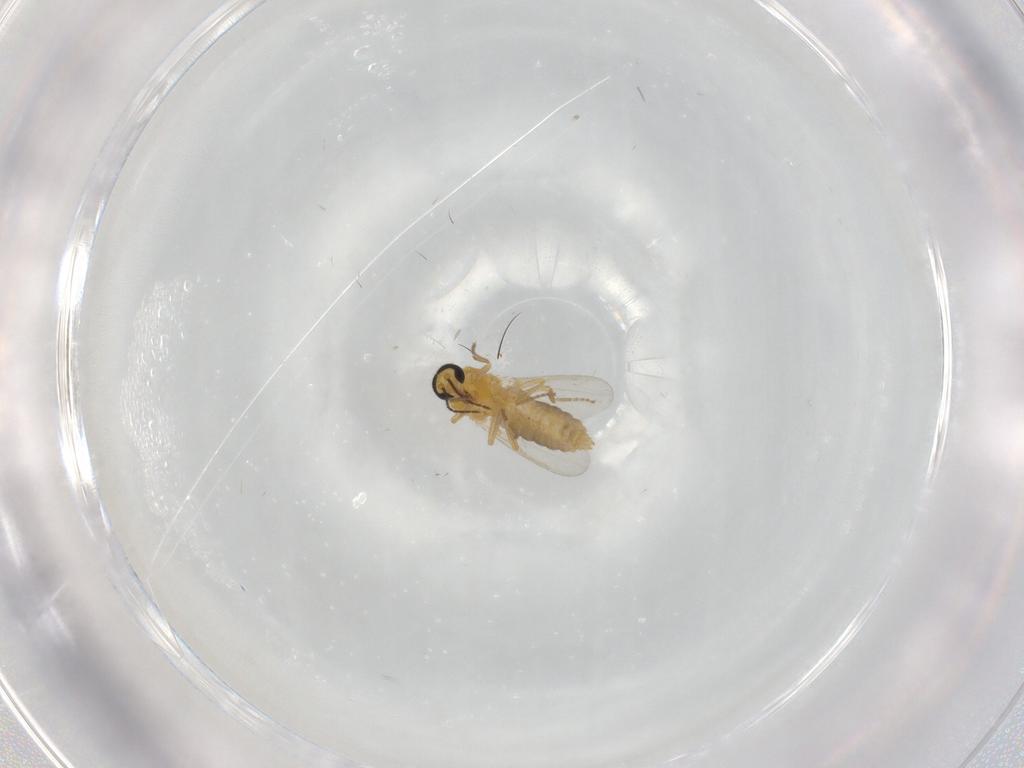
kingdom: Animalia
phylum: Arthropoda
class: Insecta
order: Diptera
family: Ceratopogonidae
